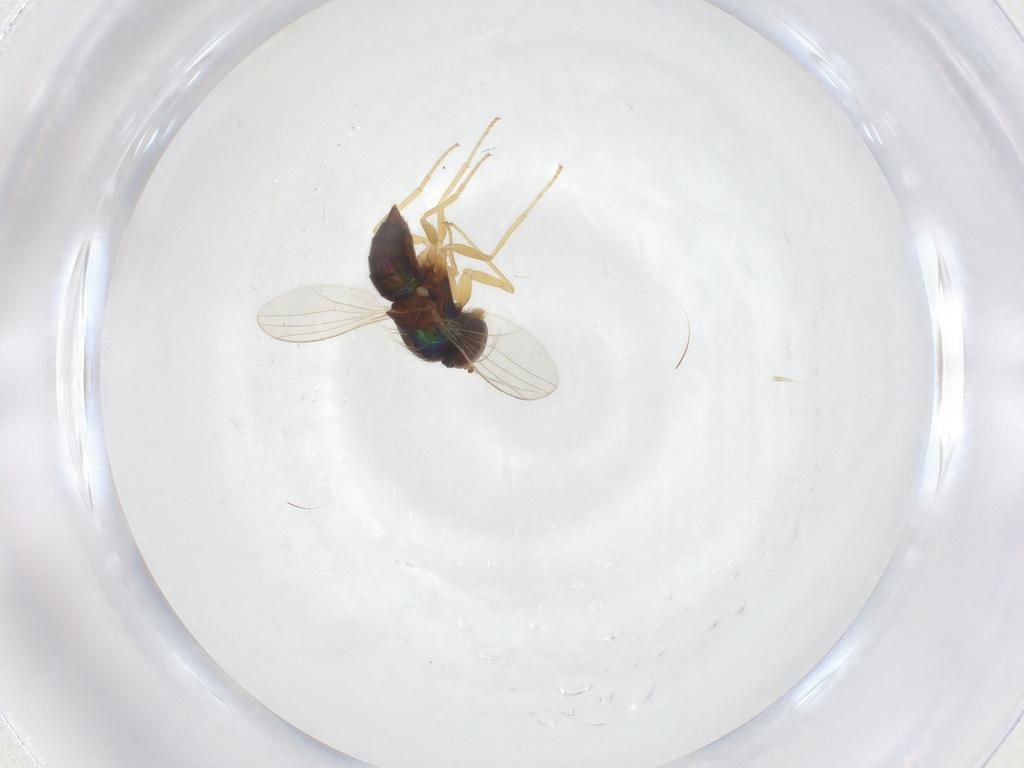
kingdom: Animalia
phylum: Arthropoda
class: Insecta
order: Diptera
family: Dolichopodidae
